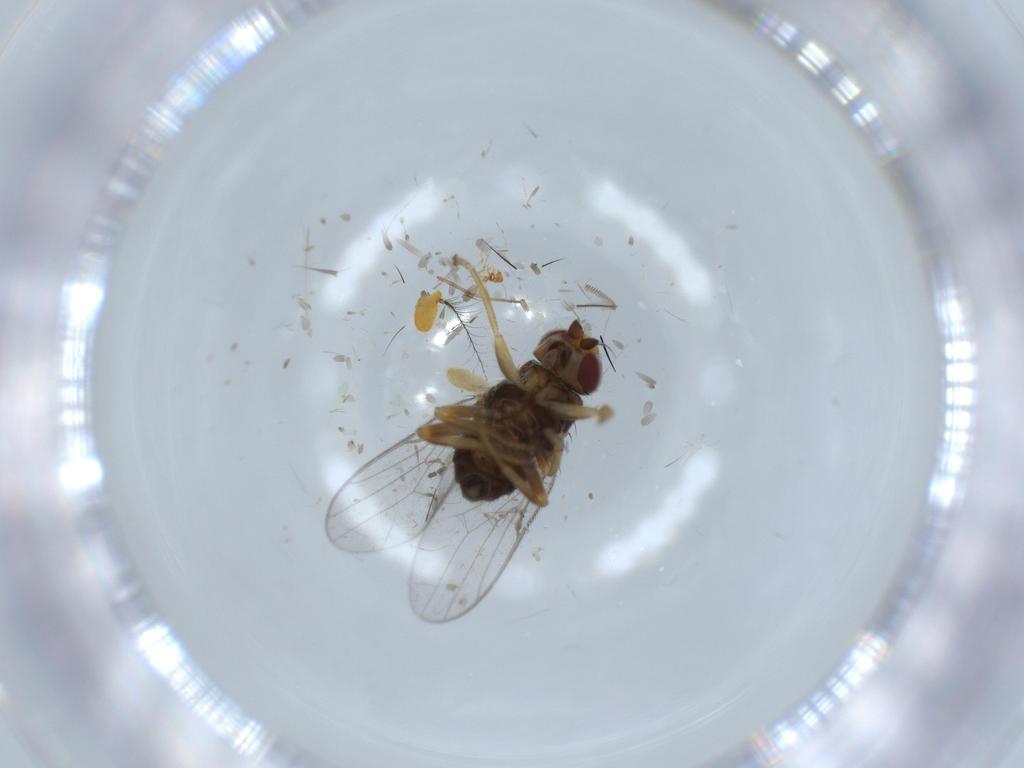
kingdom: Animalia
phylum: Arthropoda
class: Insecta
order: Diptera
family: Chloropidae
